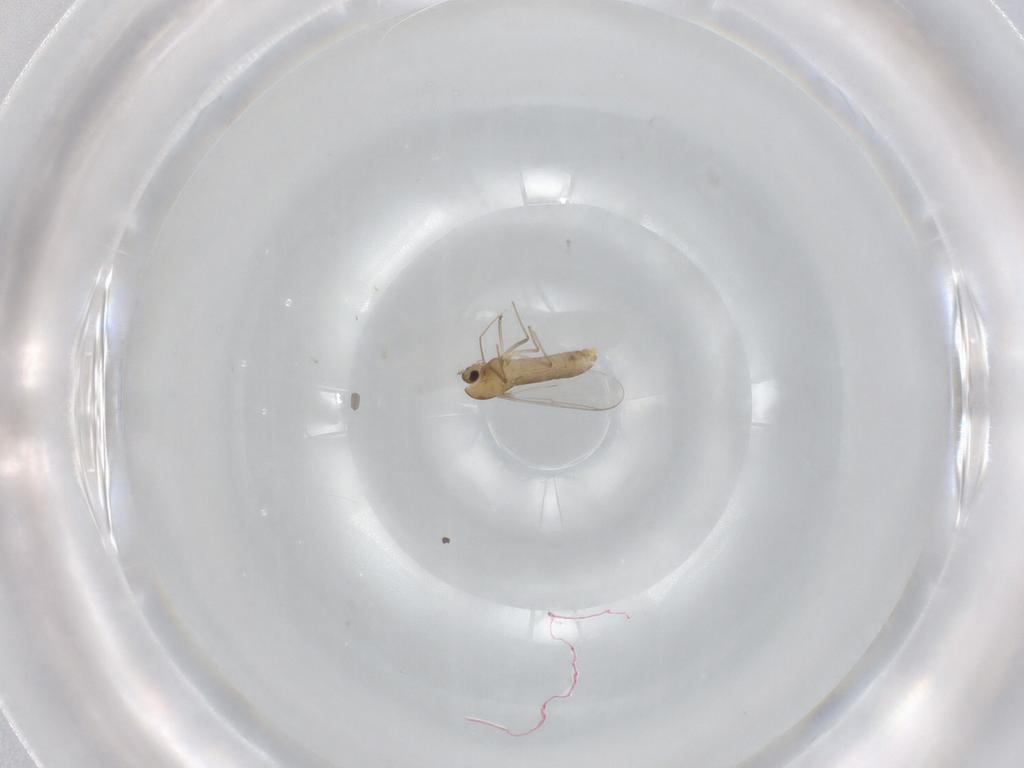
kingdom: Animalia
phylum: Arthropoda
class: Insecta
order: Diptera
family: Chironomidae
